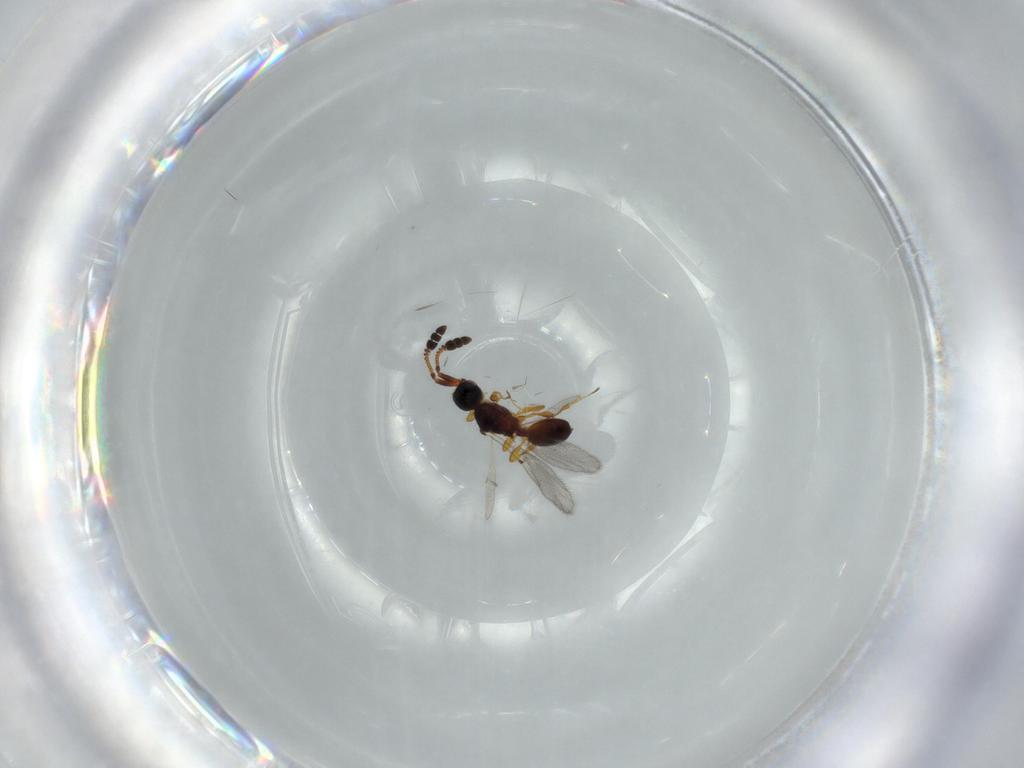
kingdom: Animalia
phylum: Arthropoda
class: Insecta
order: Hymenoptera
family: Diapriidae
